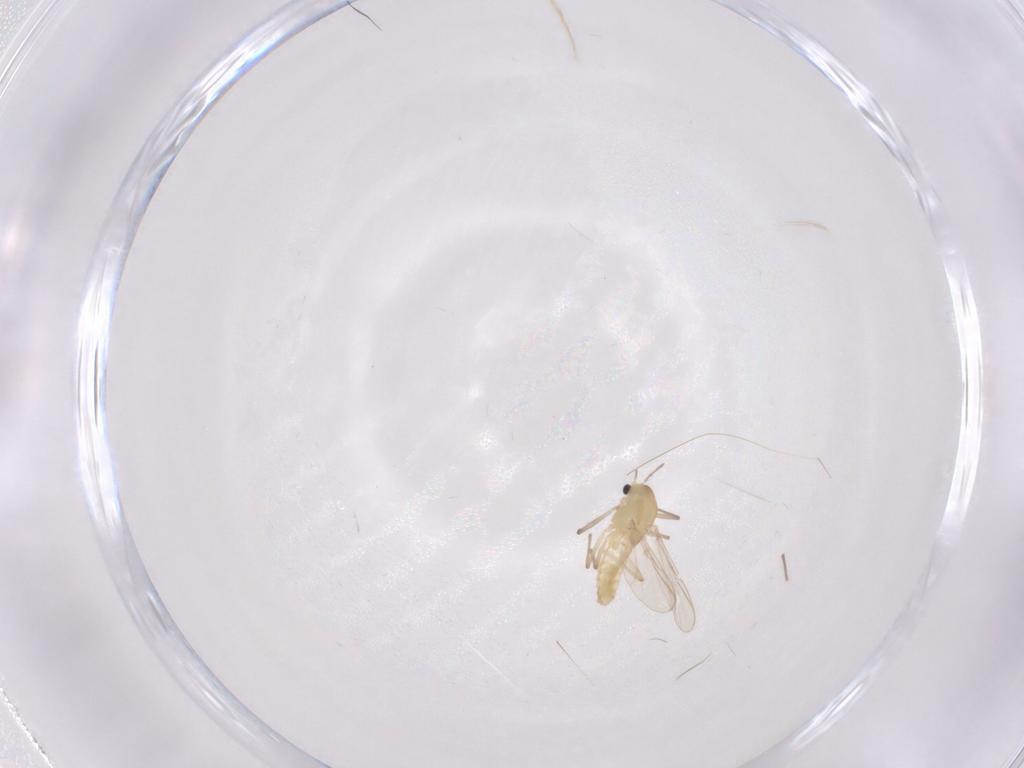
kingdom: Animalia
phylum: Arthropoda
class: Insecta
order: Diptera
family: Chironomidae
